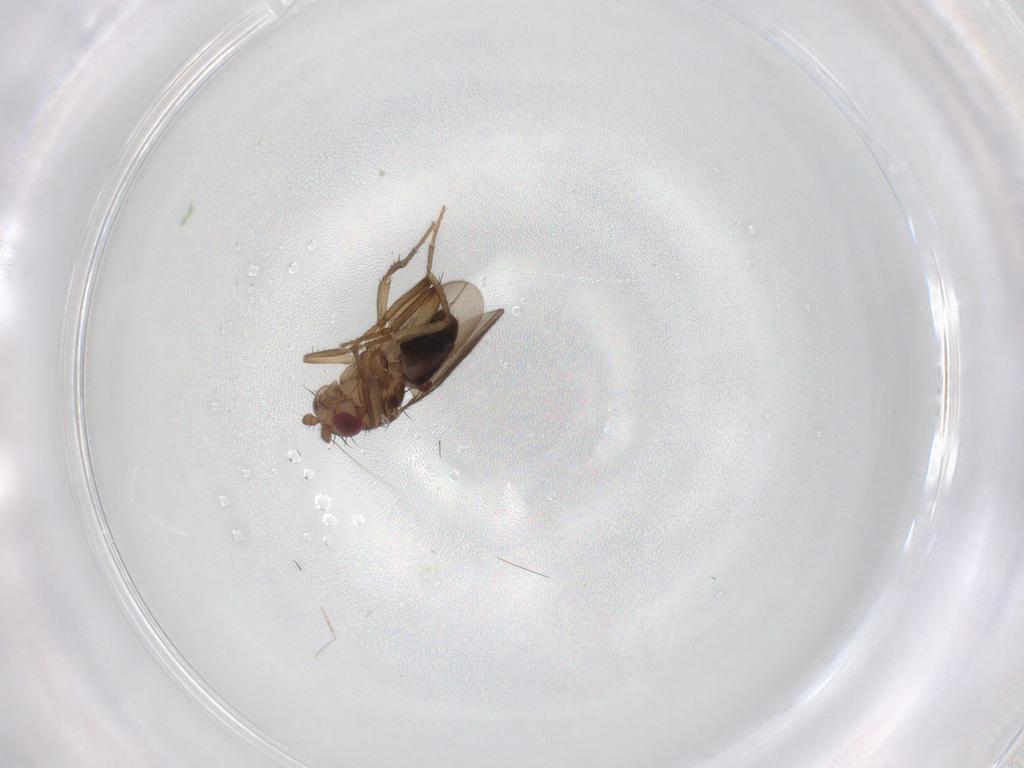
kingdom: Animalia
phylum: Arthropoda
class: Insecta
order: Diptera
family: Sphaeroceridae
